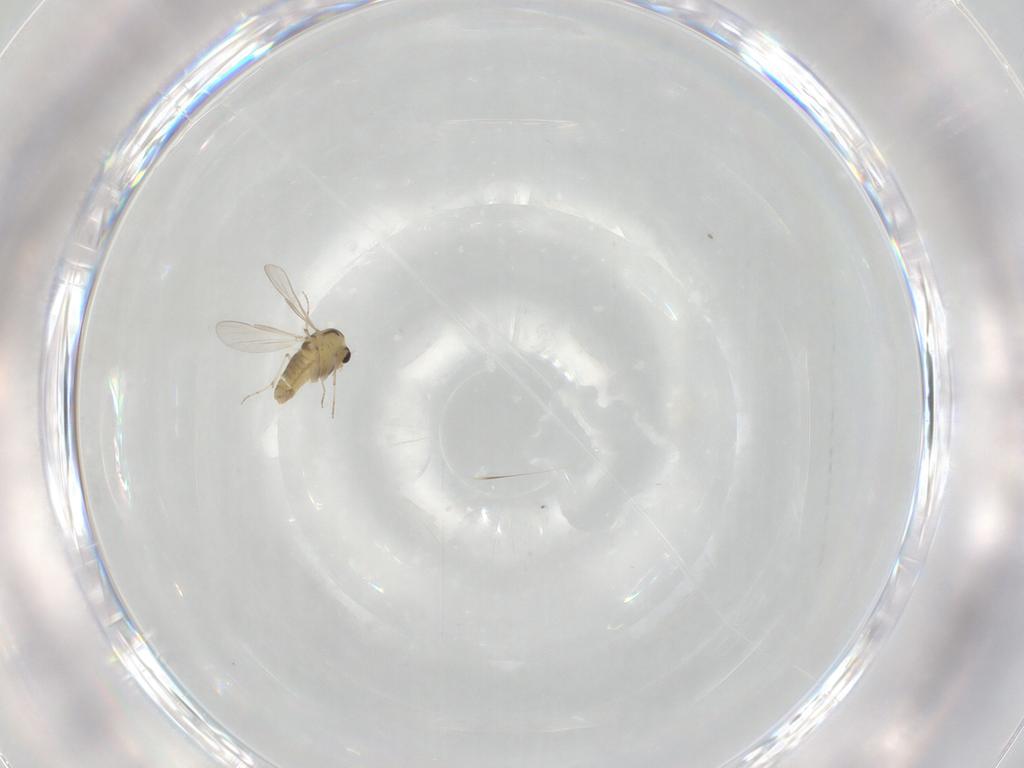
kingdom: Animalia
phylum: Arthropoda
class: Insecta
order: Diptera
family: Chironomidae
